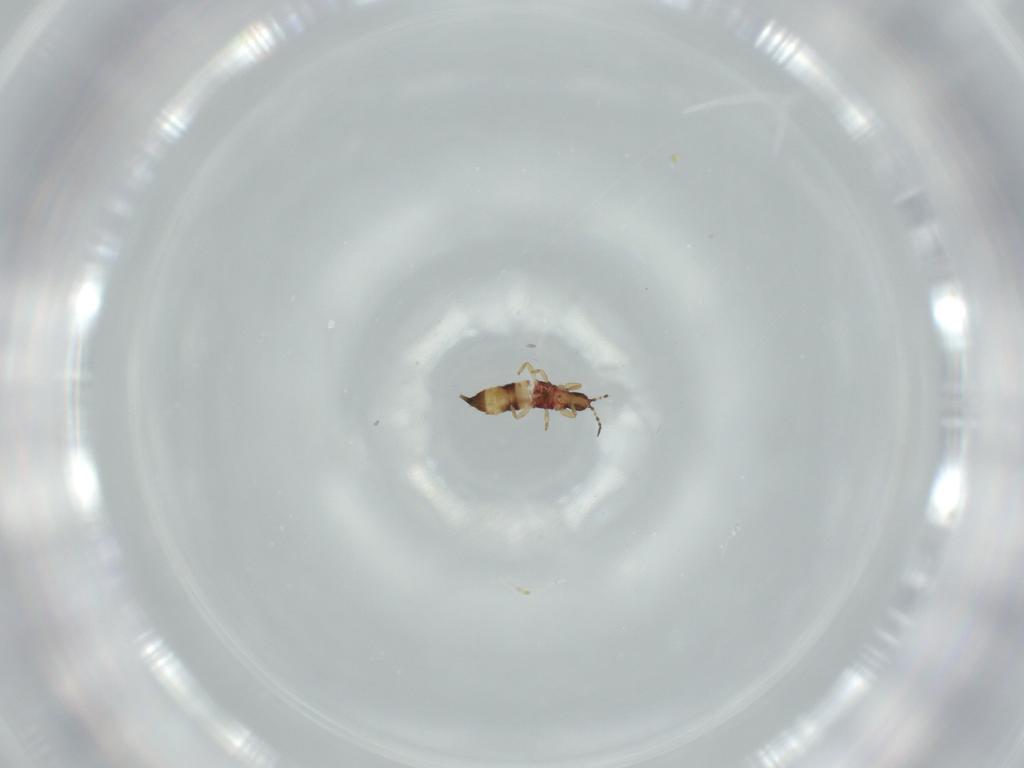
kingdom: Animalia
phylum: Arthropoda
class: Insecta
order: Thysanoptera
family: Phlaeothripidae
